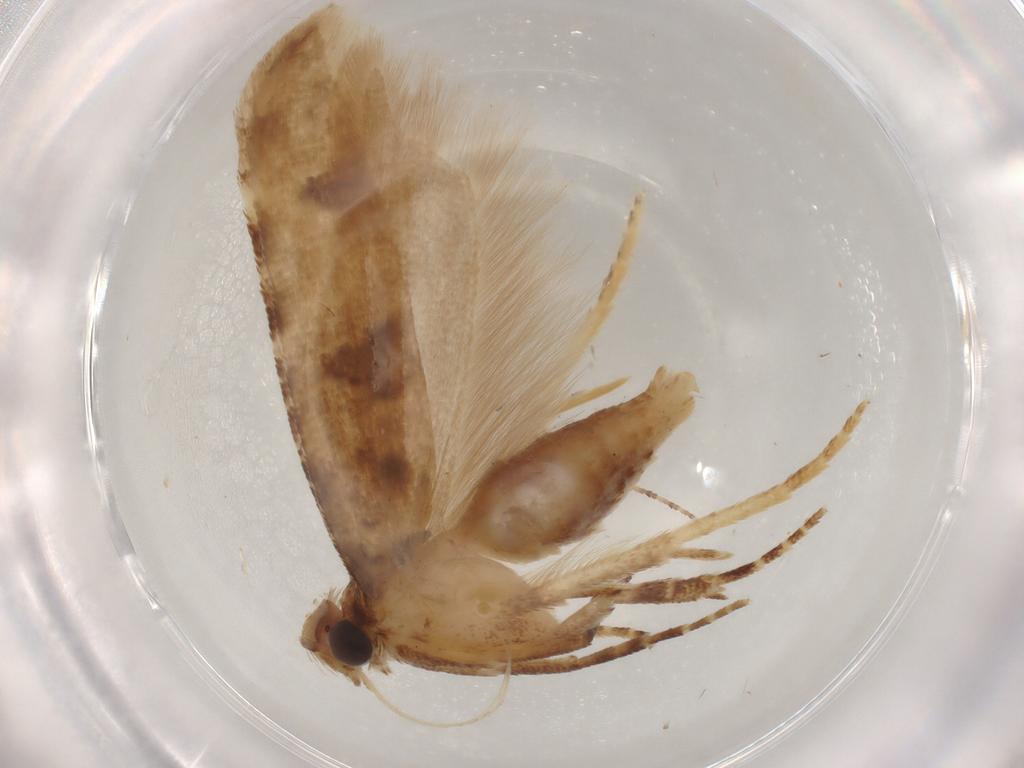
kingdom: Animalia
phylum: Arthropoda
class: Insecta
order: Lepidoptera
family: Gelechiidae
